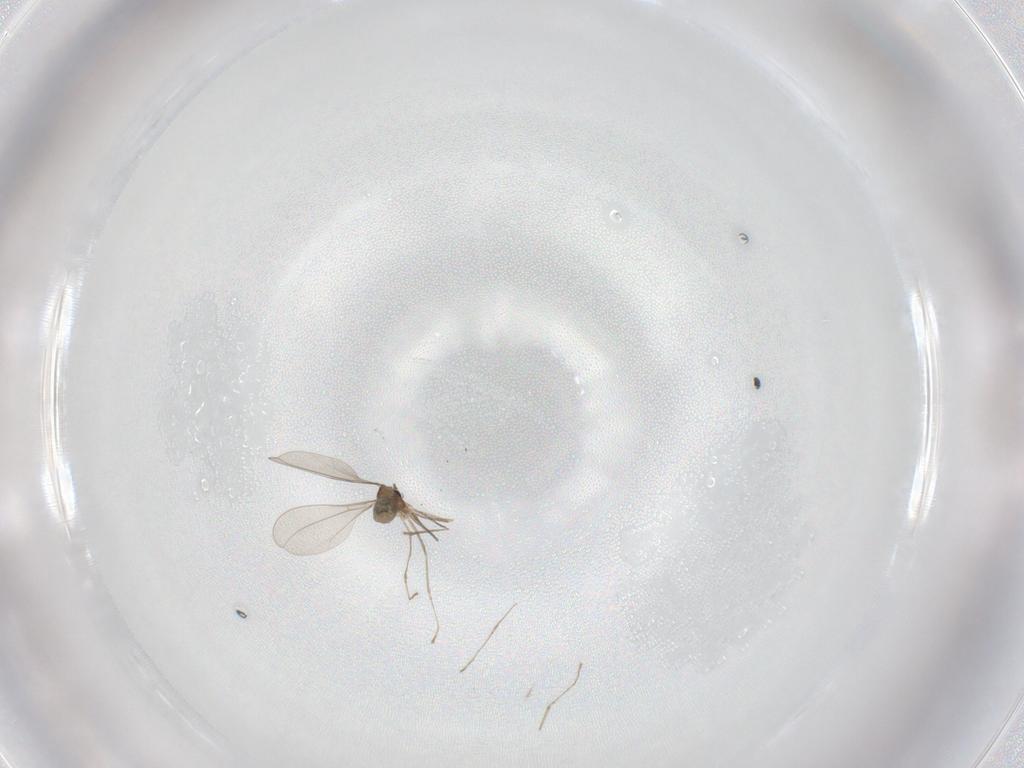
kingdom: Animalia
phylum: Arthropoda
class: Insecta
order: Diptera
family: Cecidomyiidae
